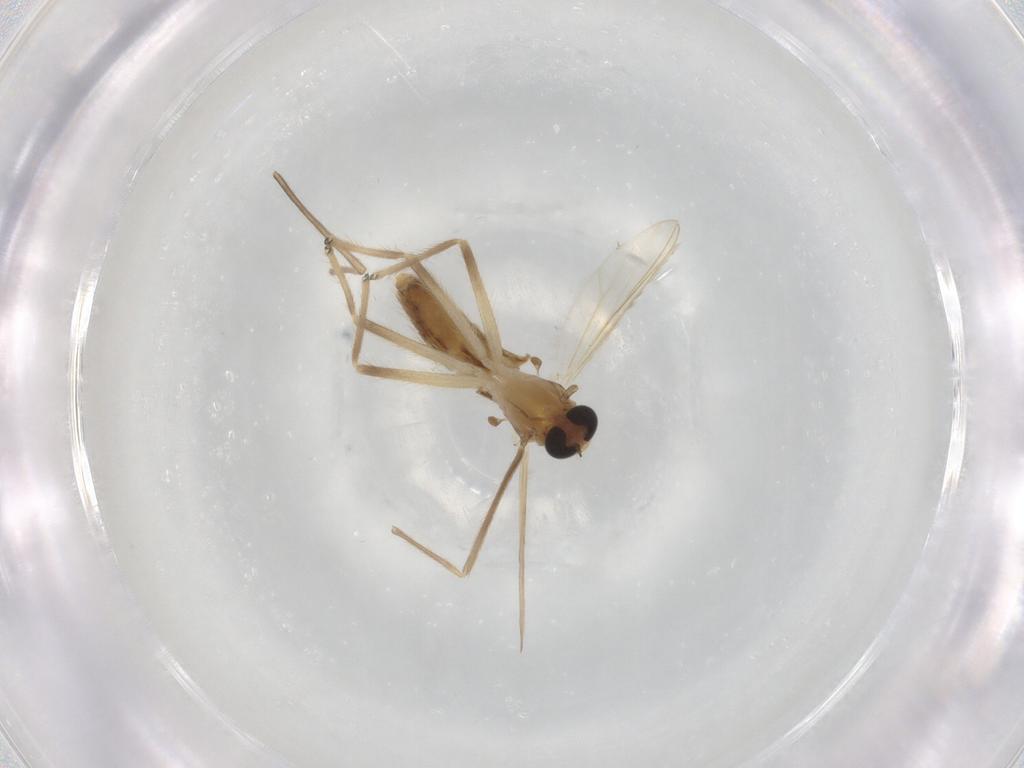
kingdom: Animalia
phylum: Arthropoda
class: Insecta
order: Diptera
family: Chironomidae
